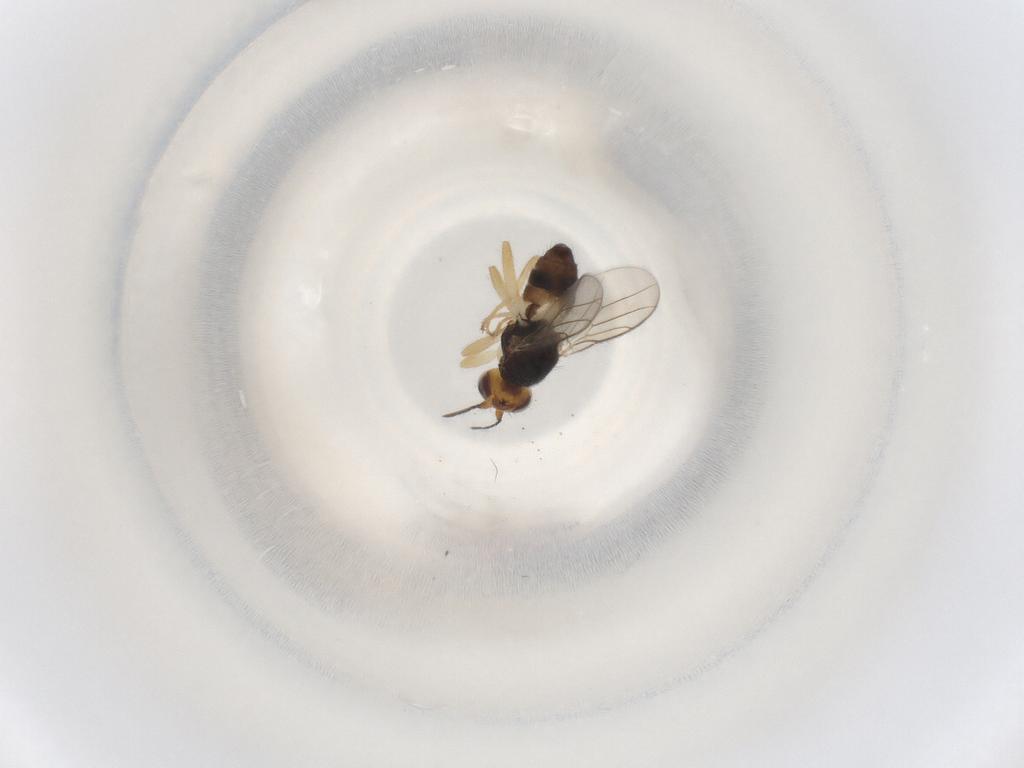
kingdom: Animalia
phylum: Arthropoda
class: Insecta
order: Diptera
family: Chloropidae
